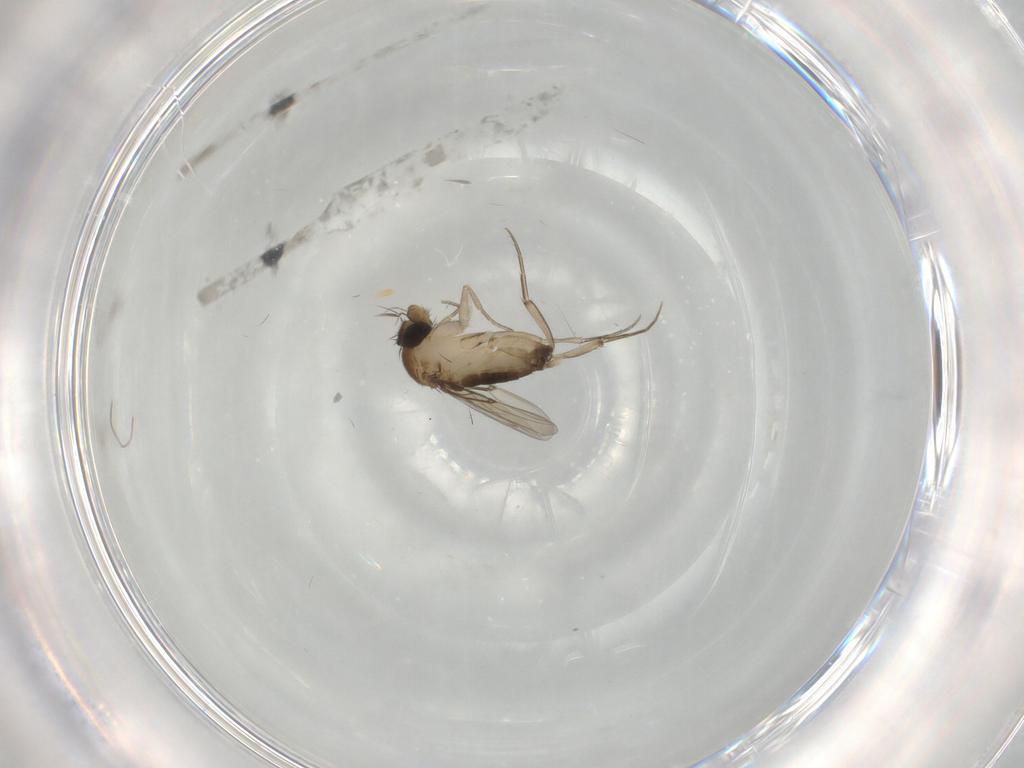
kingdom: Animalia
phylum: Arthropoda
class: Insecta
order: Diptera
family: Phoridae
